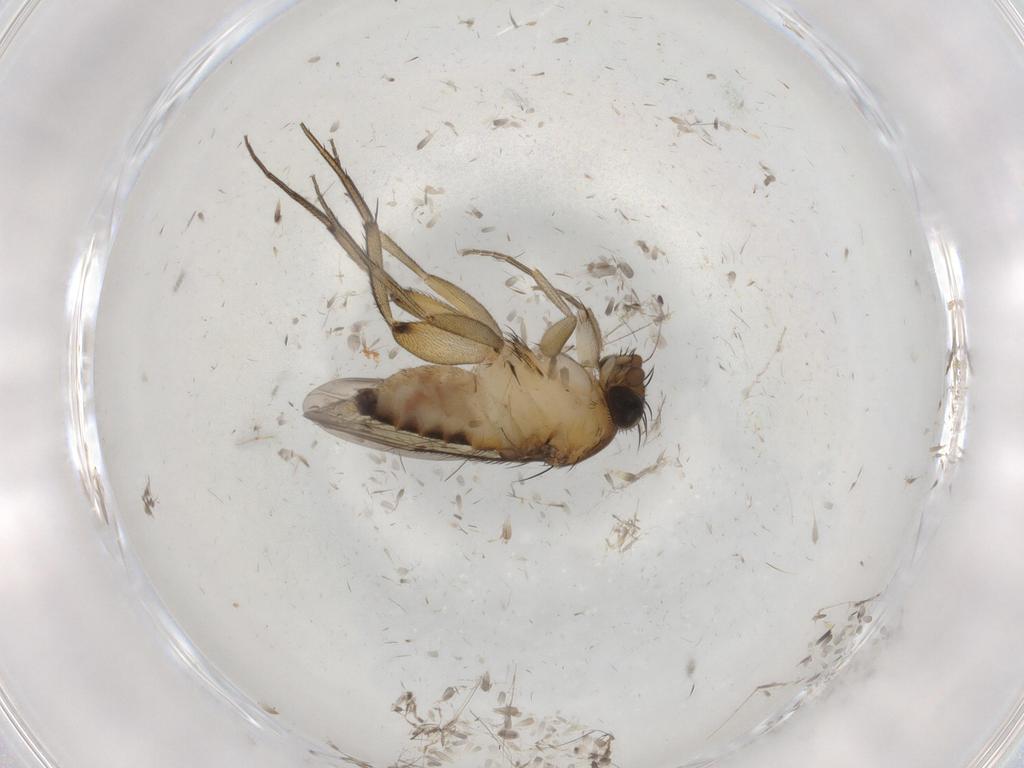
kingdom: Animalia
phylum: Arthropoda
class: Insecta
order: Diptera
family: Phoridae
